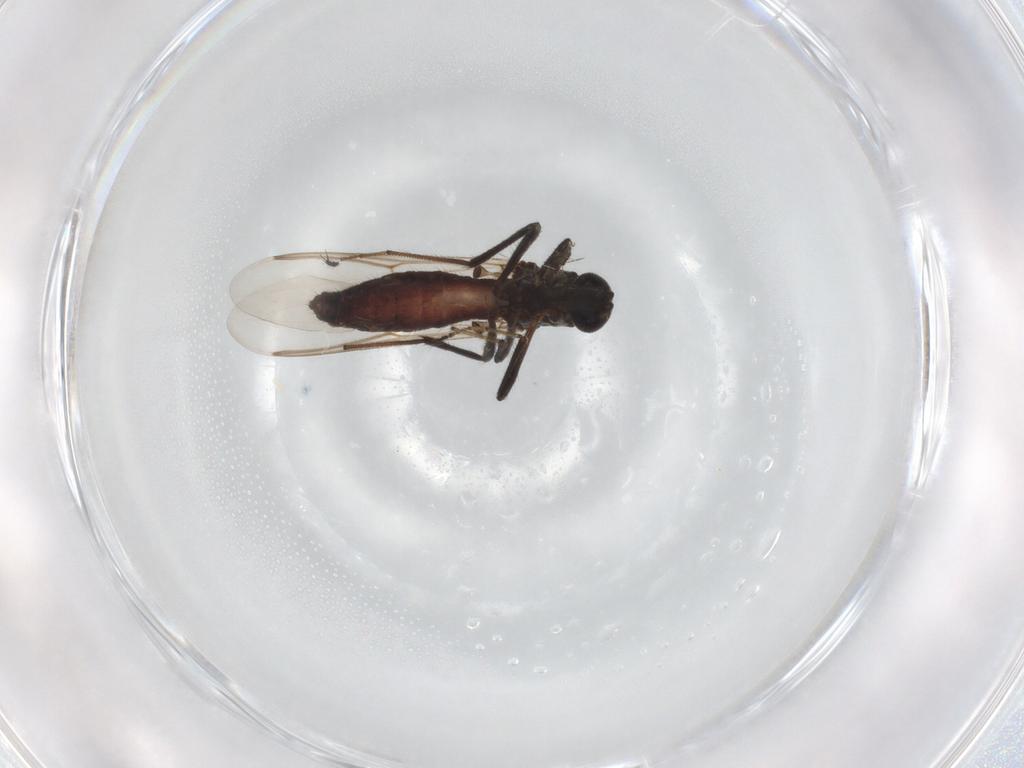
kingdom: Animalia
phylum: Arthropoda
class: Insecta
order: Diptera
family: Ceratopogonidae
